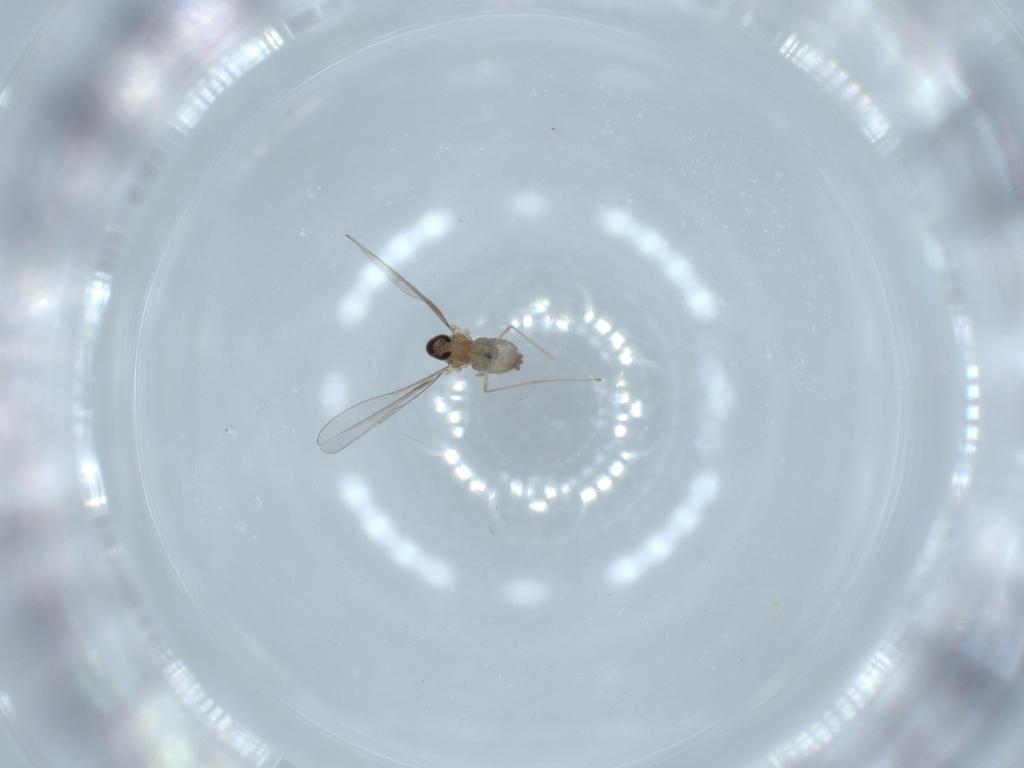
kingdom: Animalia
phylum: Arthropoda
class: Insecta
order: Diptera
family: Cecidomyiidae
